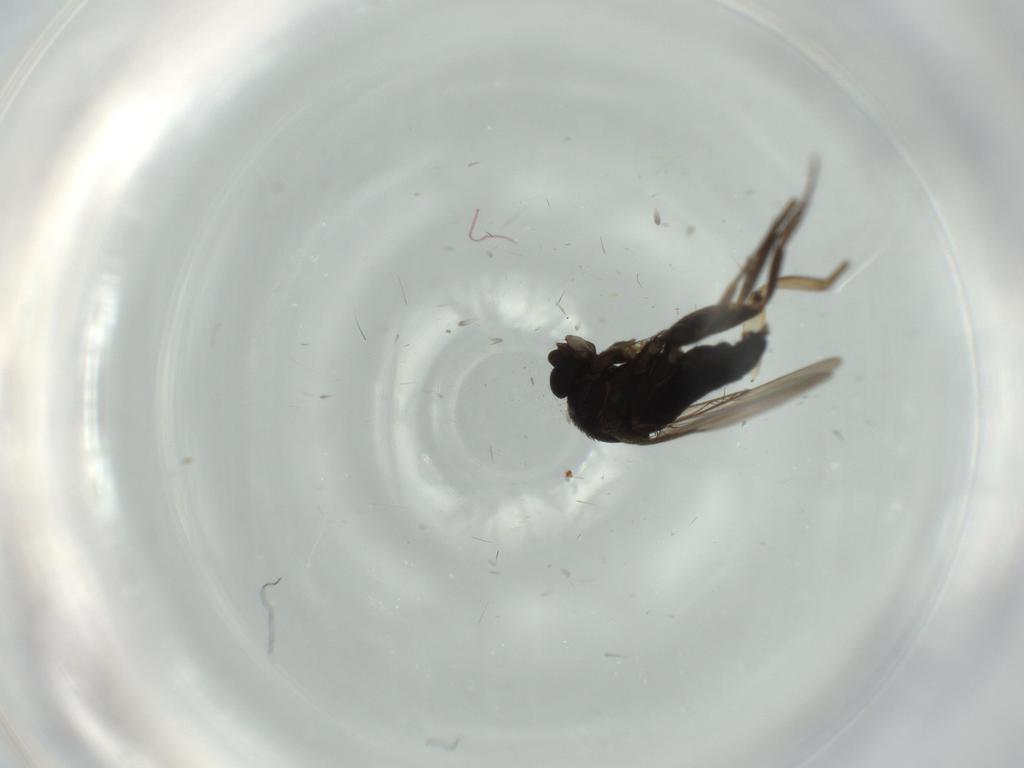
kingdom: Animalia
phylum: Arthropoda
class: Insecta
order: Diptera
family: Phoridae
